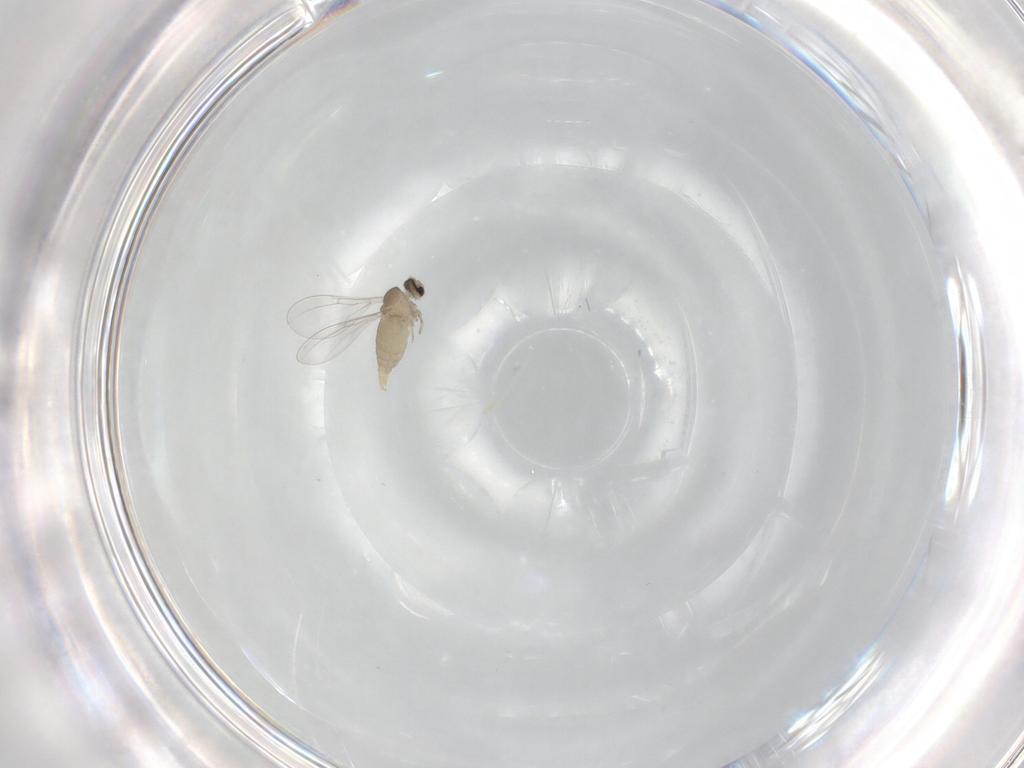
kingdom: Animalia
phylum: Arthropoda
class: Insecta
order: Diptera
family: Cecidomyiidae
